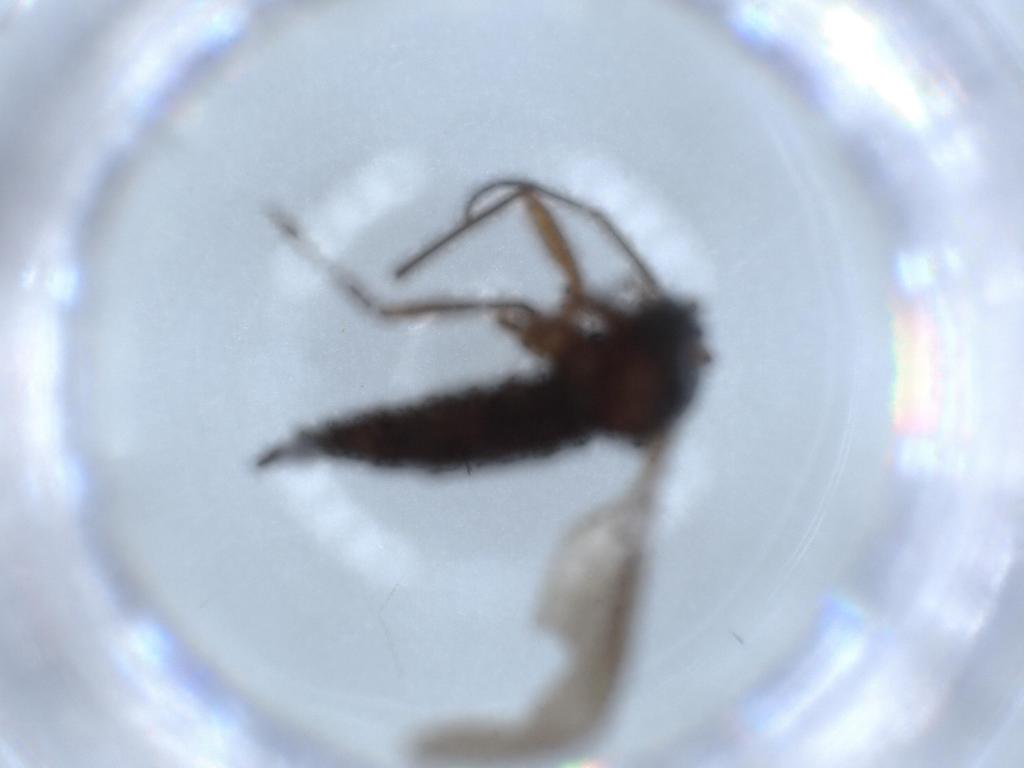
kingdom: Animalia
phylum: Arthropoda
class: Insecta
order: Diptera
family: Sciaridae
